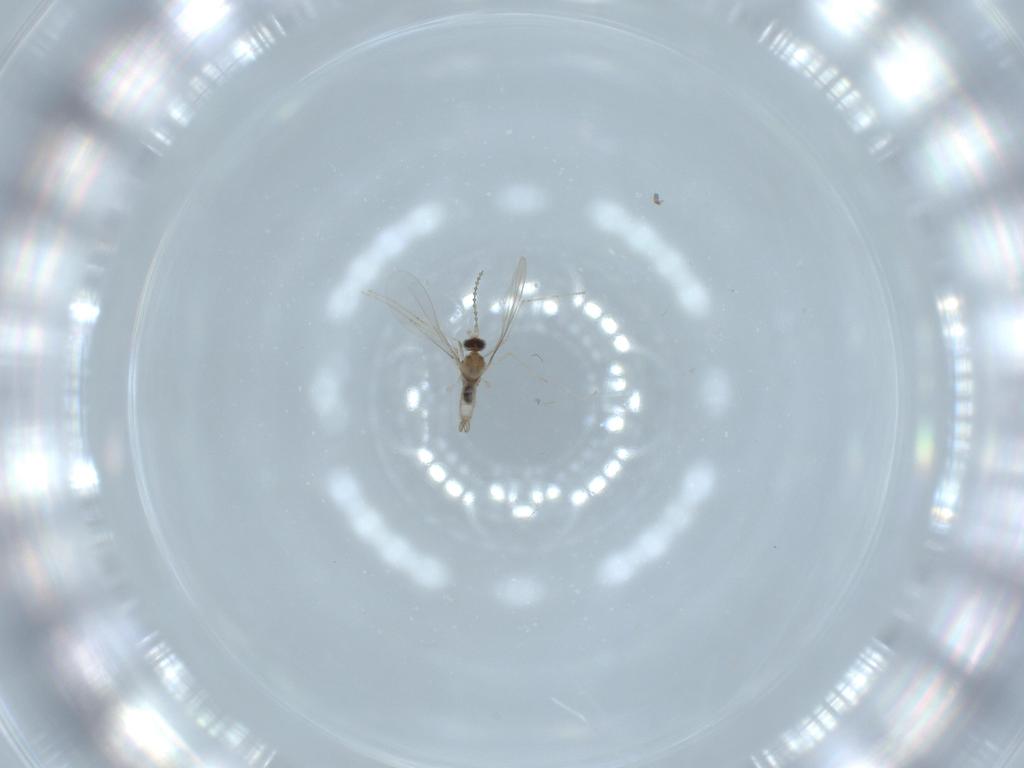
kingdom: Animalia
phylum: Arthropoda
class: Insecta
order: Diptera
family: Cecidomyiidae
